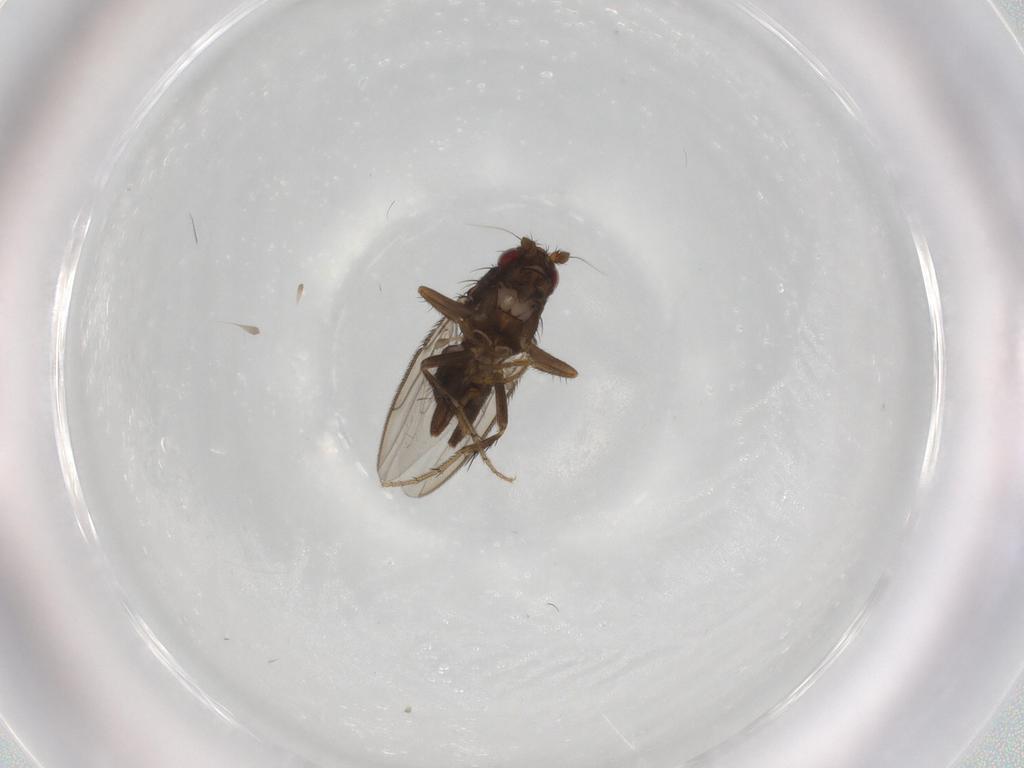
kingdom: Animalia
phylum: Arthropoda
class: Insecta
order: Diptera
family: Sphaeroceridae
